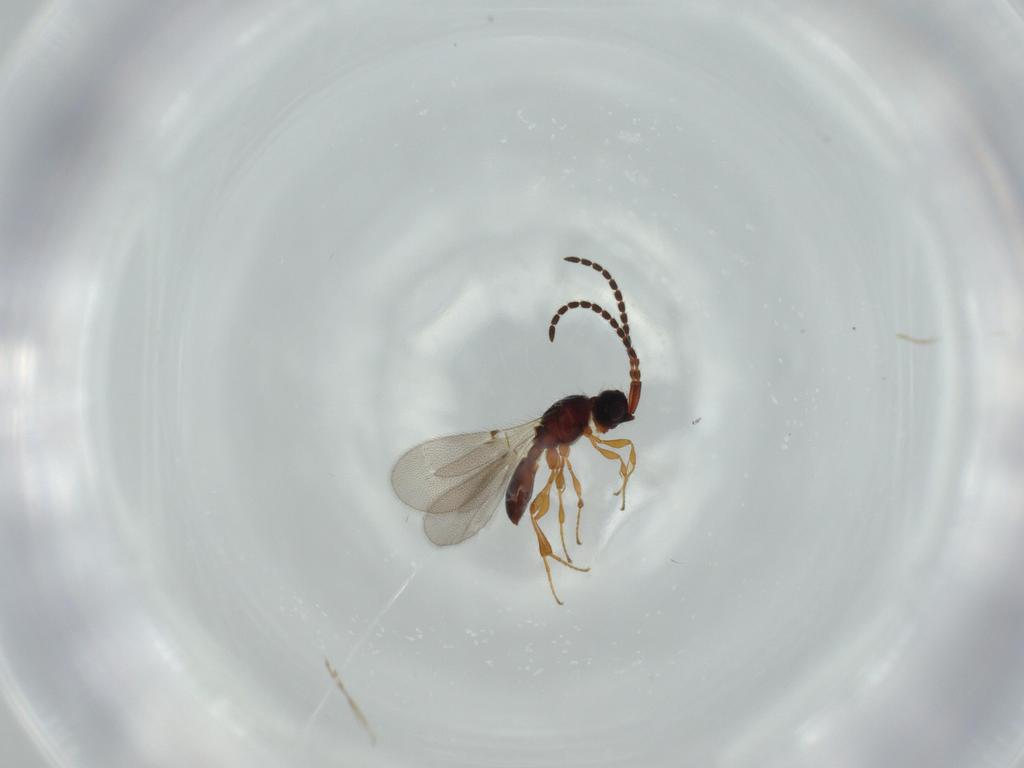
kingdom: Animalia
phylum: Arthropoda
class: Insecta
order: Hymenoptera
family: Diapriidae
